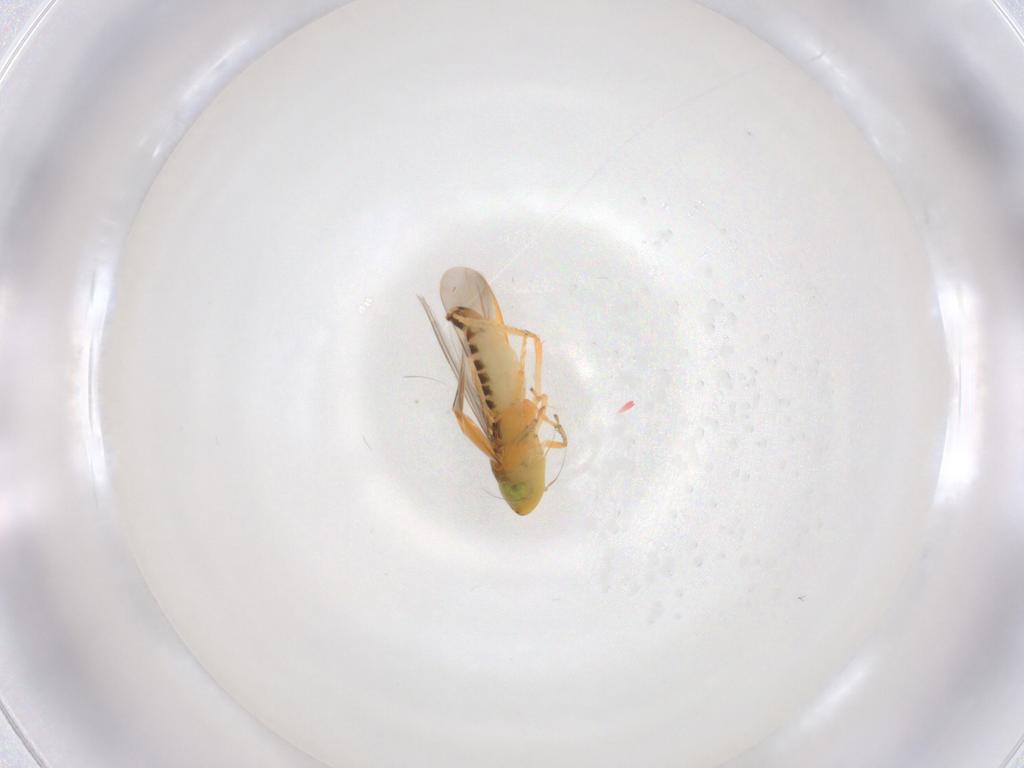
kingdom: Animalia
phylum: Arthropoda
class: Insecta
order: Hemiptera
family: Cicadellidae
